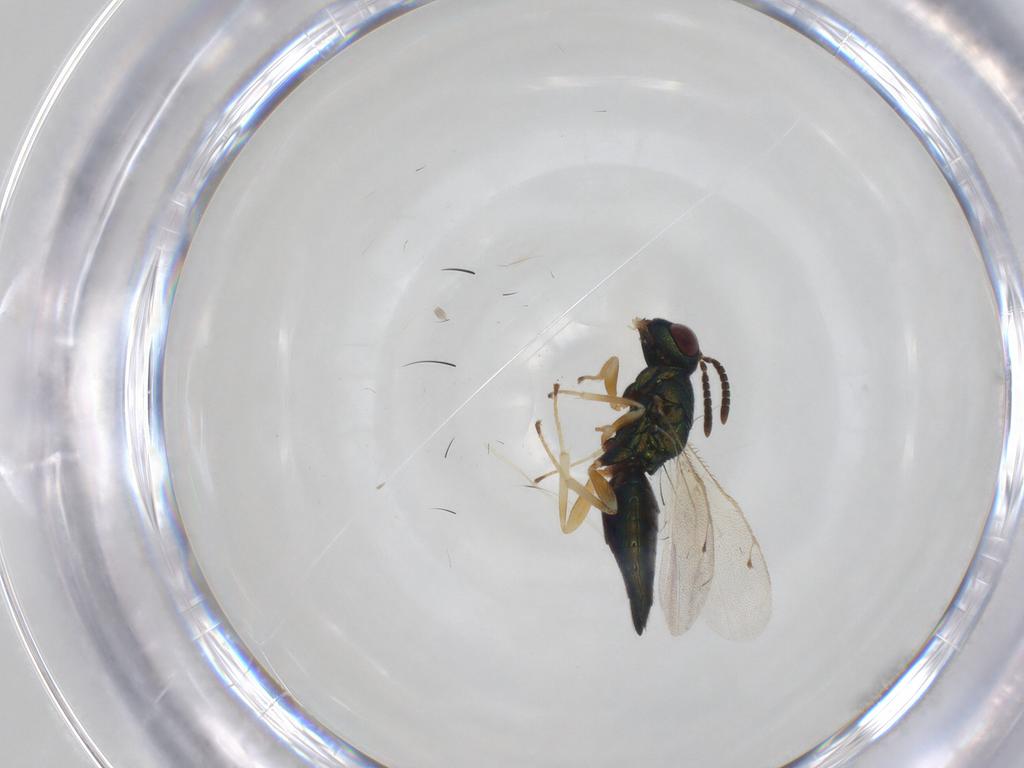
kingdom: Animalia
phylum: Arthropoda
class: Insecta
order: Hymenoptera
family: Pteromalidae
